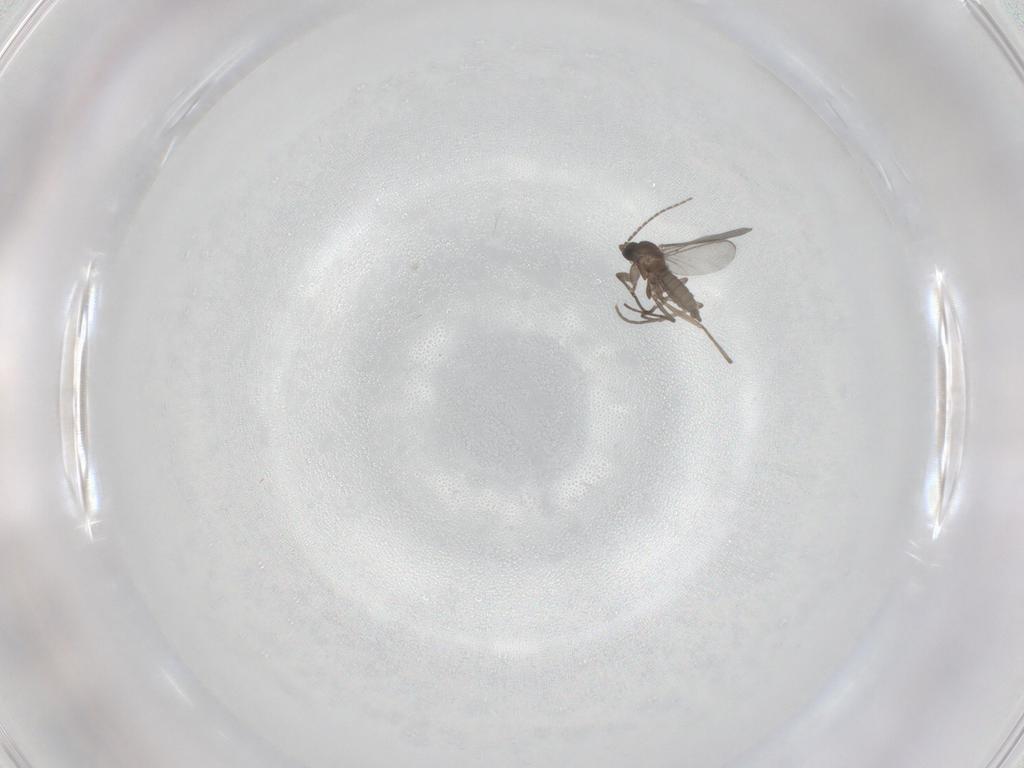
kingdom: Animalia
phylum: Arthropoda
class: Insecta
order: Diptera
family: Sciaridae
